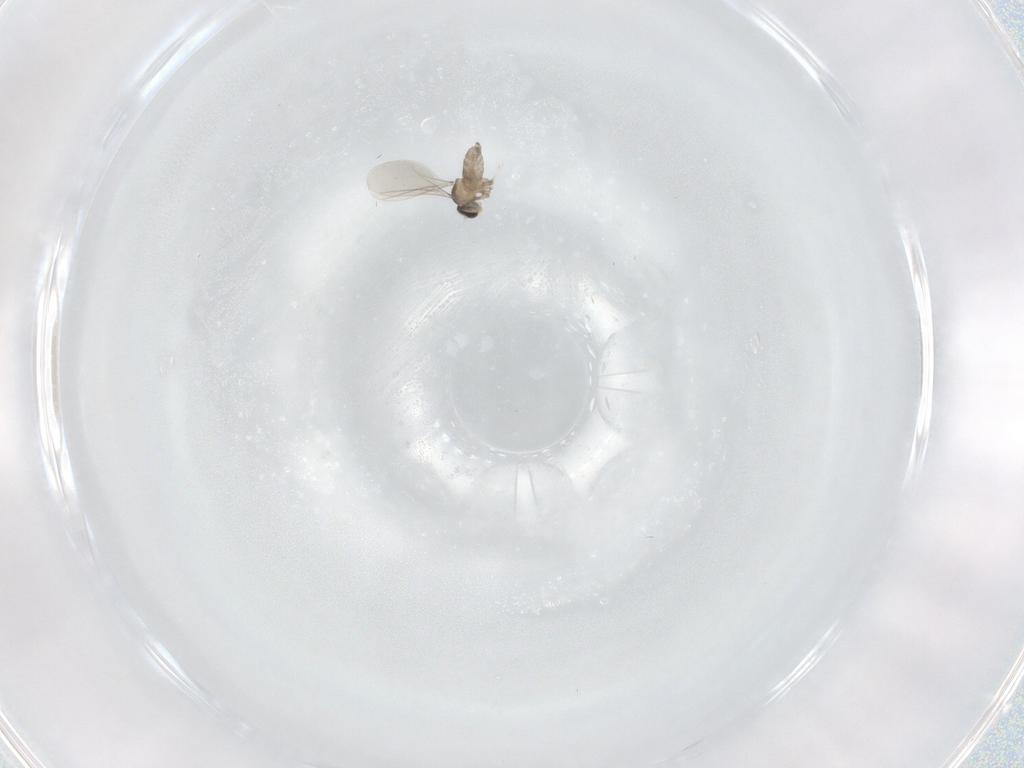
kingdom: Animalia
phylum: Arthropoda
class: Insecta
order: Diptera
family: Cecidomyiidae
